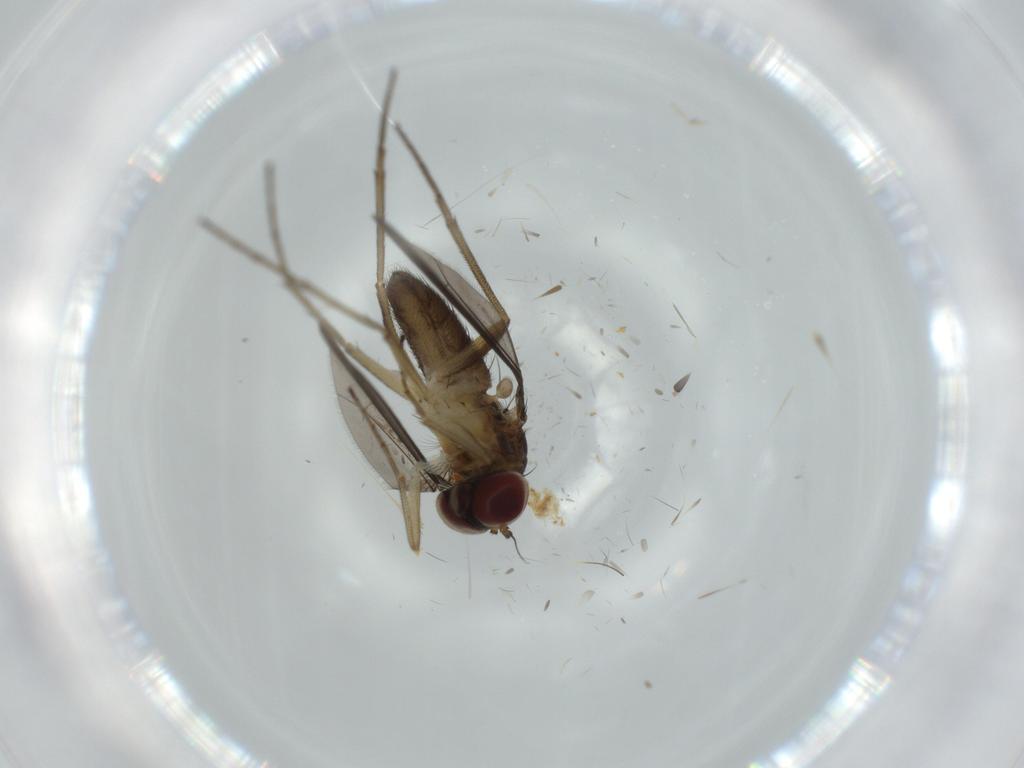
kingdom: Animalia
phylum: Arthropoda
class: Insecta
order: Diptera
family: Dolichopodidae
